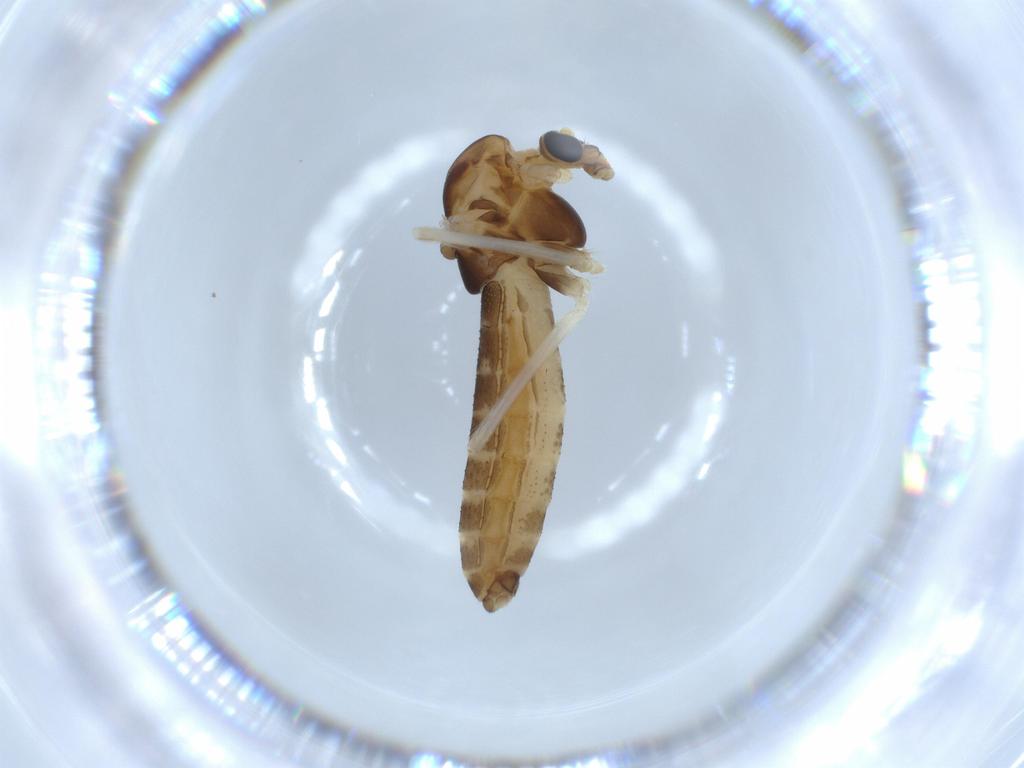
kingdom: Animalia
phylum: Arthropoda
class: Insecta
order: Diptera
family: Chironomidae
